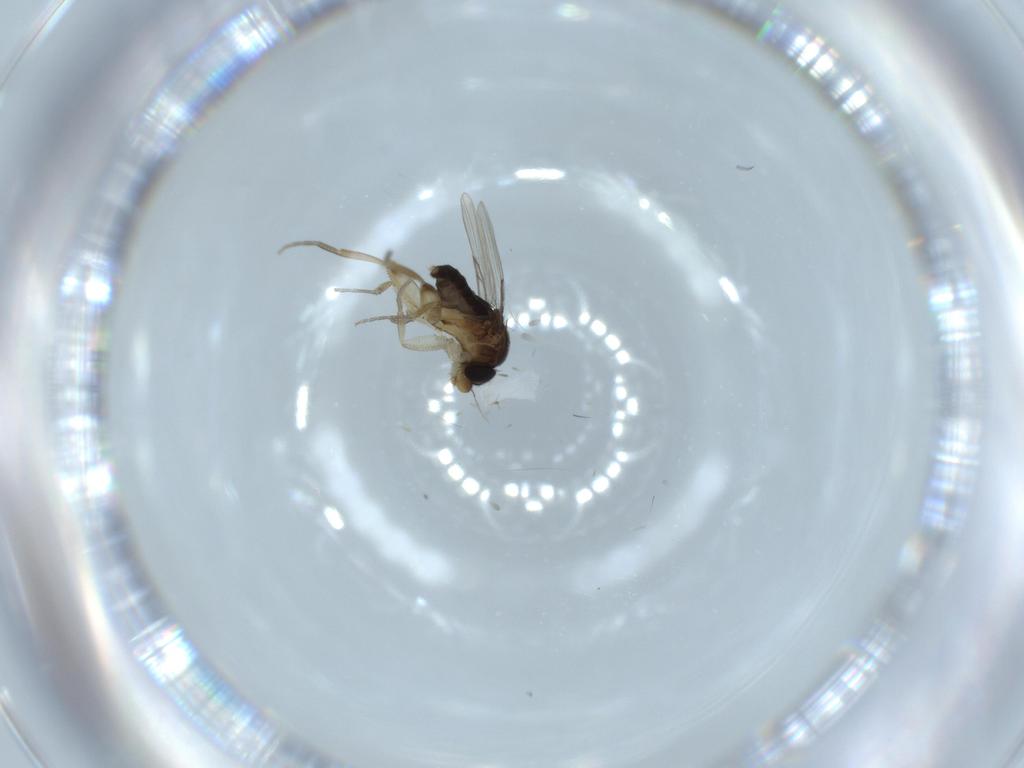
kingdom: Animalia
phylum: Arthropoda
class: Insecta
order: Diptera
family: Phoridae
